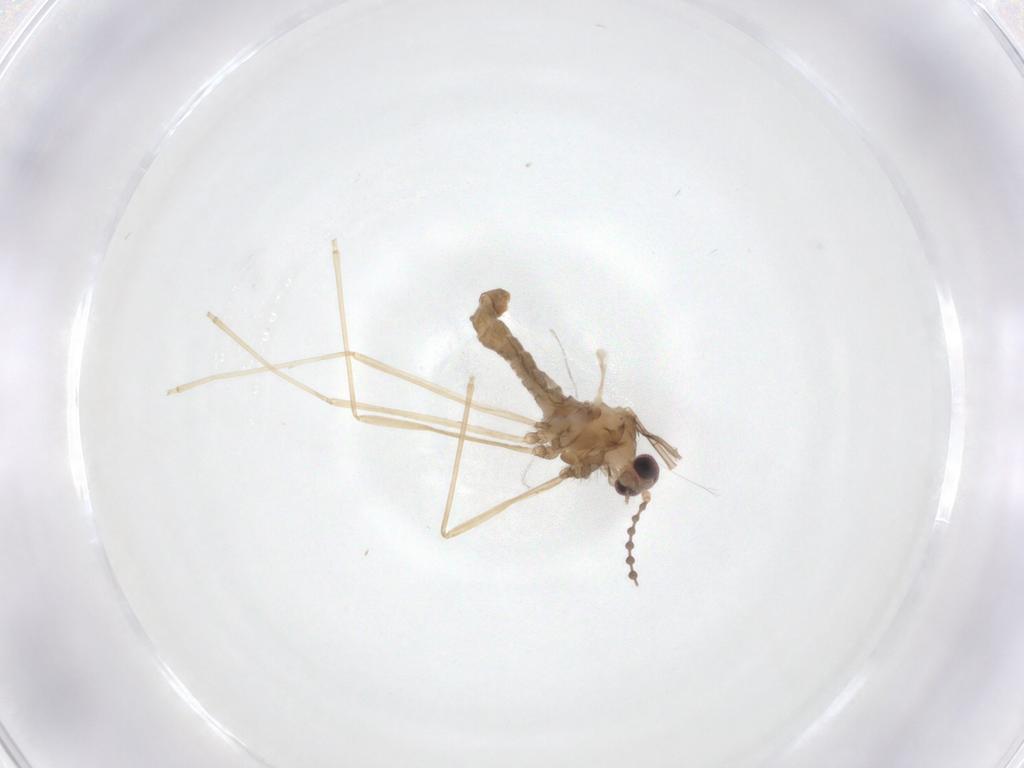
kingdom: Animalia
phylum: Arthropoda
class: Insecta
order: Diptera
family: Cecidomyiidae
